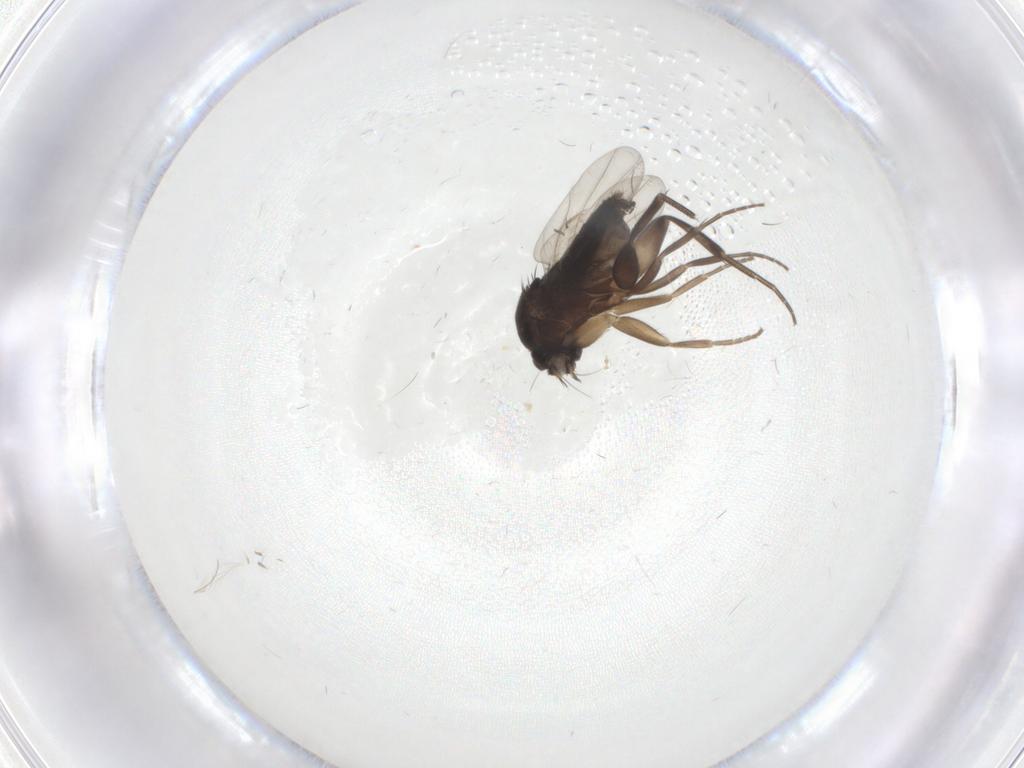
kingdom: Animalia
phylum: Arthropoda
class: Insecta
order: Diptera
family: Phoridae
